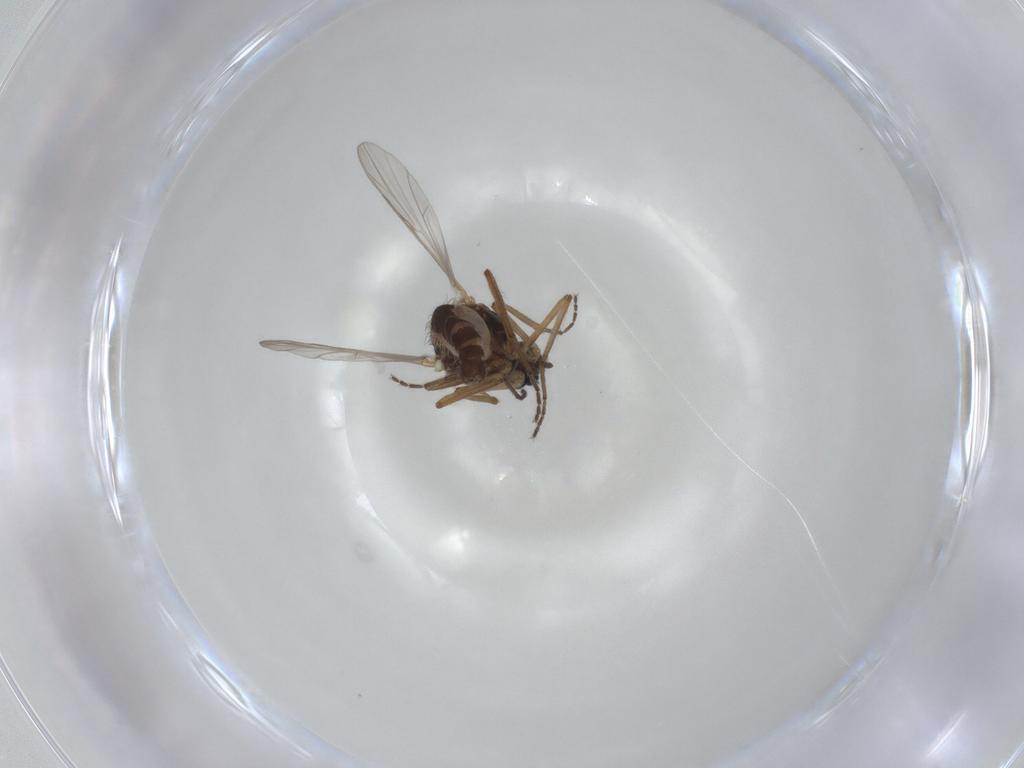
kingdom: Animalia
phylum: Arthropoda
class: Insecta
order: Diptera
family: Ceratopogonidae
